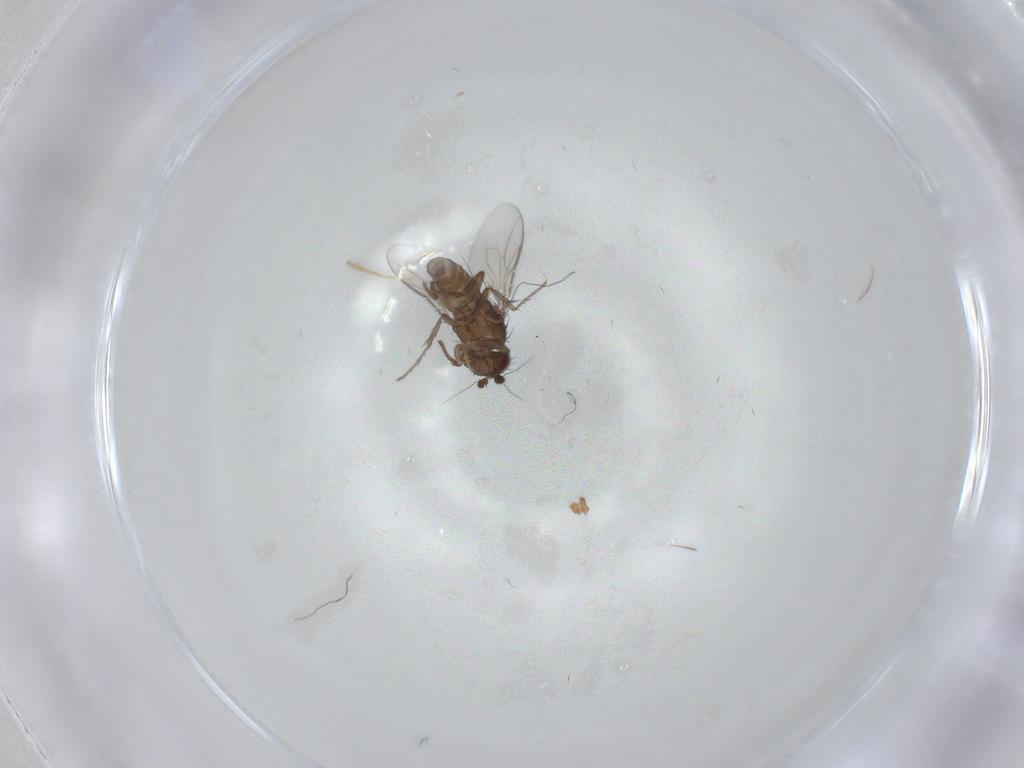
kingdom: Animalia
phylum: Arthropoda
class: Insecta
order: Diptera
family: Sphaeroceridae
